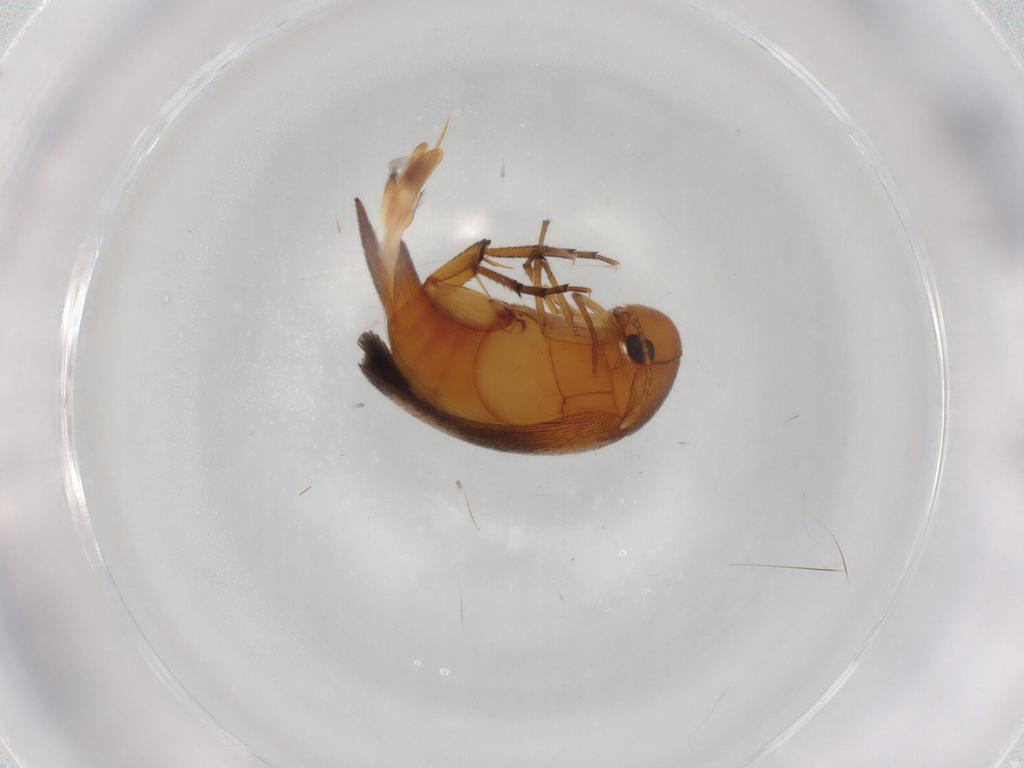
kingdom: Animalia
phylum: Arthropoda
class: Insecta
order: Coleoptera
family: Mordellidae
